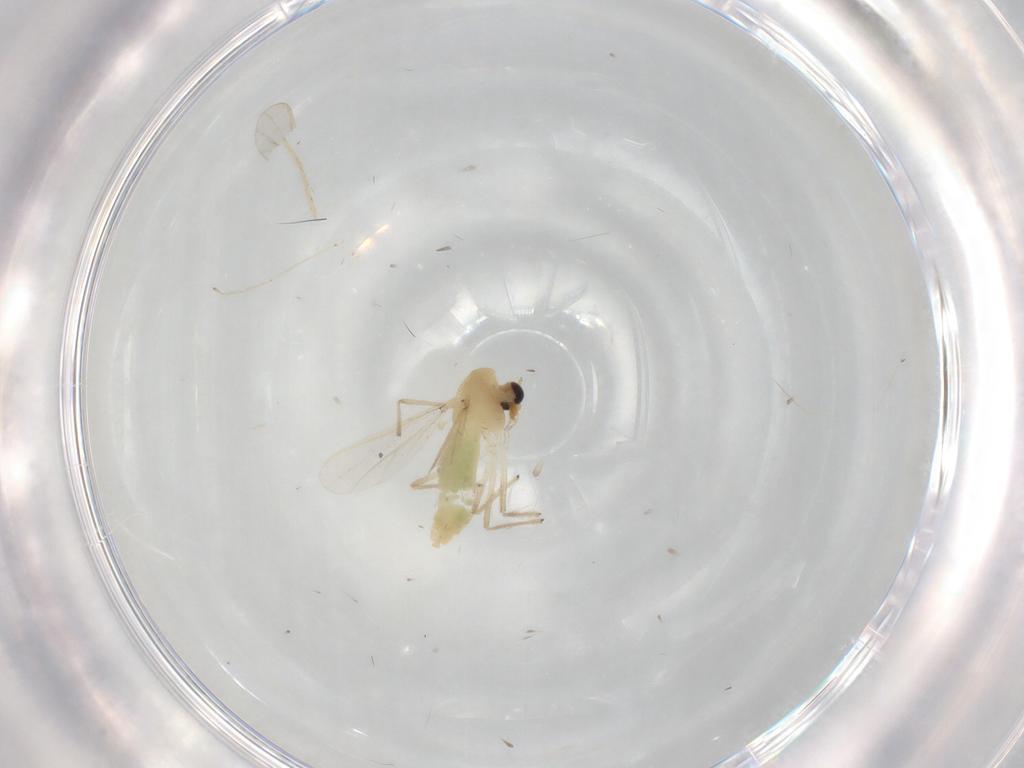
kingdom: Animalia
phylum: Arthropoda
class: Insecta
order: Diptera
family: Chironomidae
